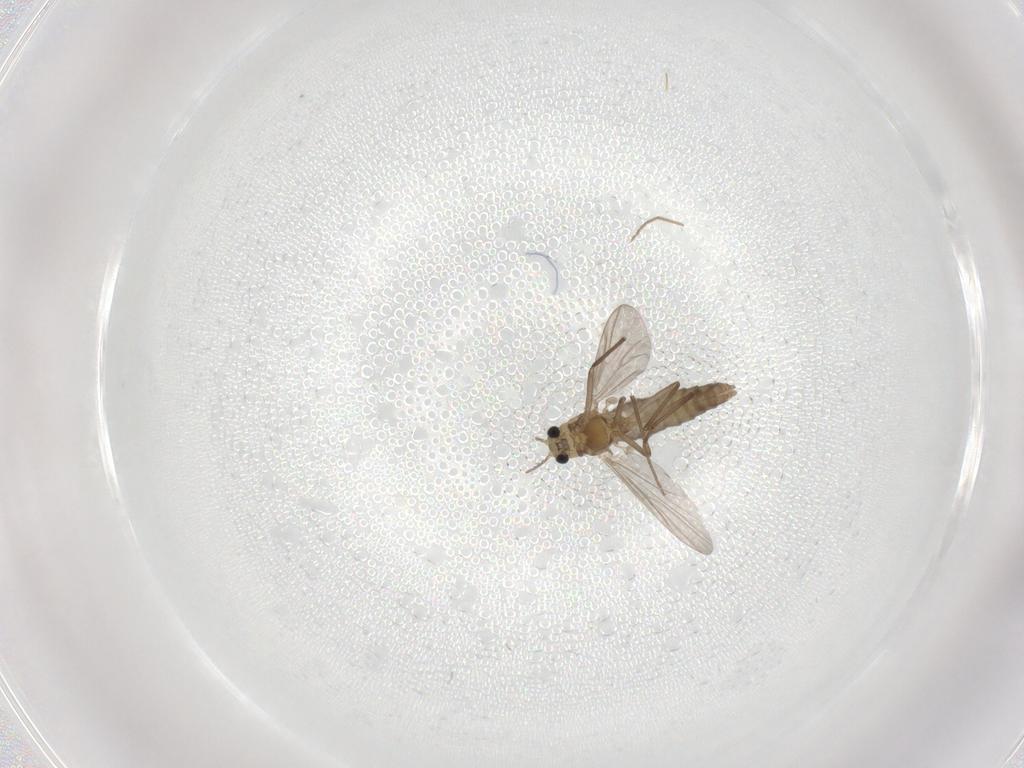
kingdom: Animalia
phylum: Arthropoda
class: Insecta
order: Diptera
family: Chironomidae
